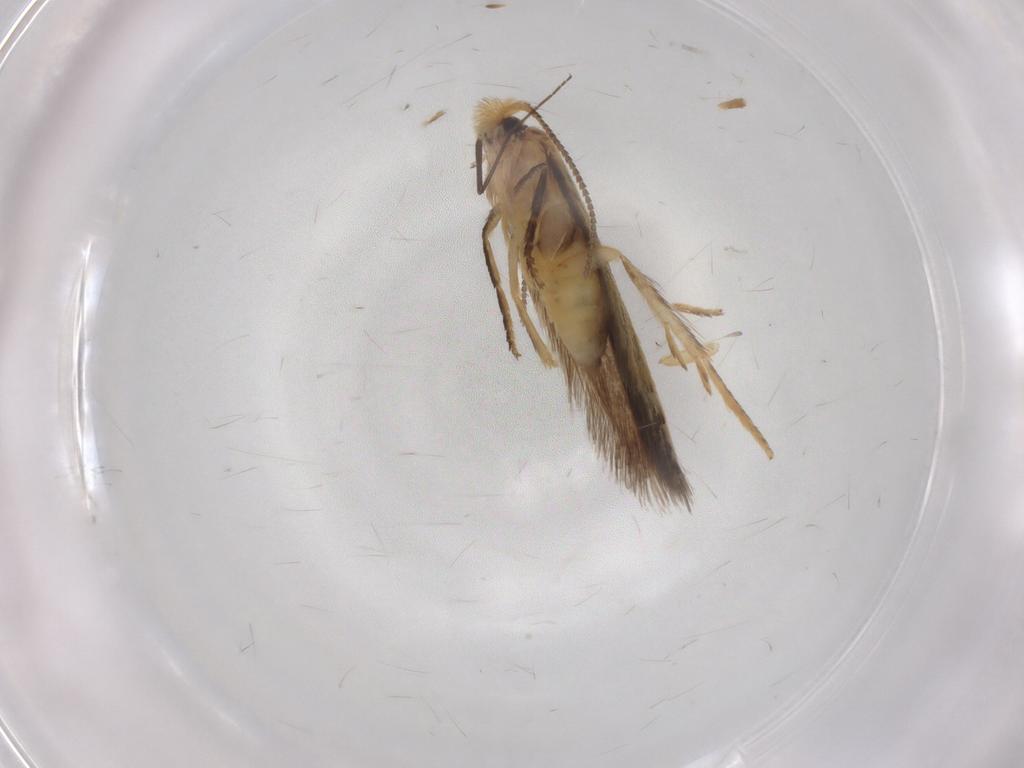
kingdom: Animalia
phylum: Arthropoda
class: Insecta
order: Lepidoptera
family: Nepticulidae
